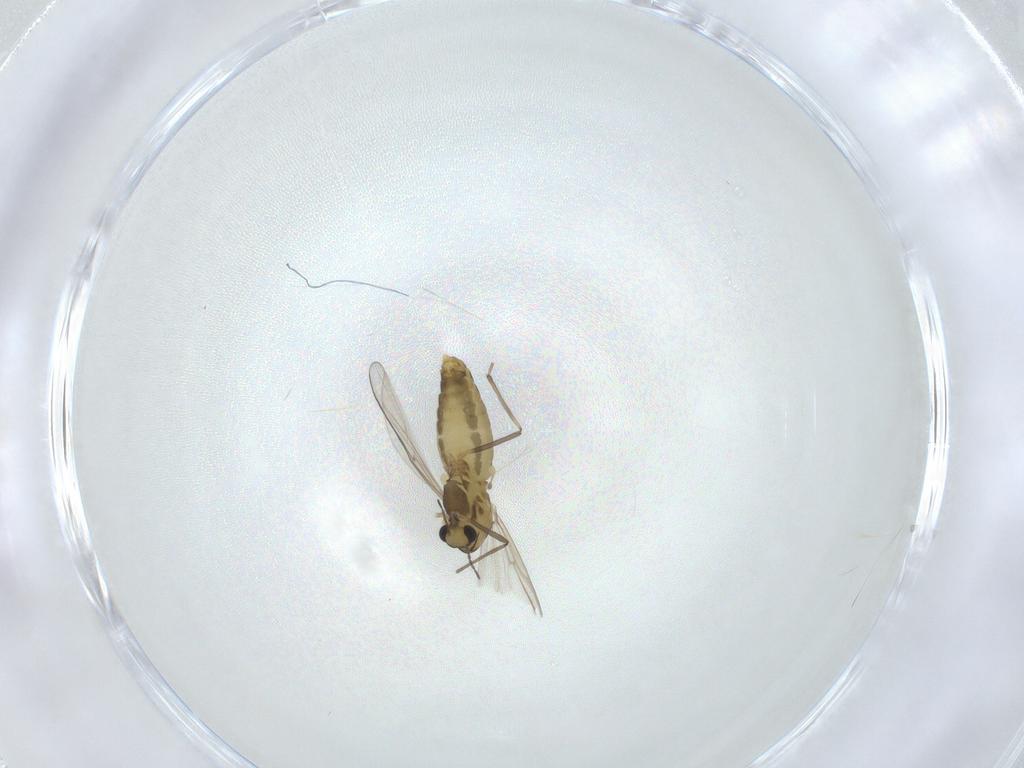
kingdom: Animalia
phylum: Arthropoda
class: Insecta
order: Diptera
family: Chironomidae
